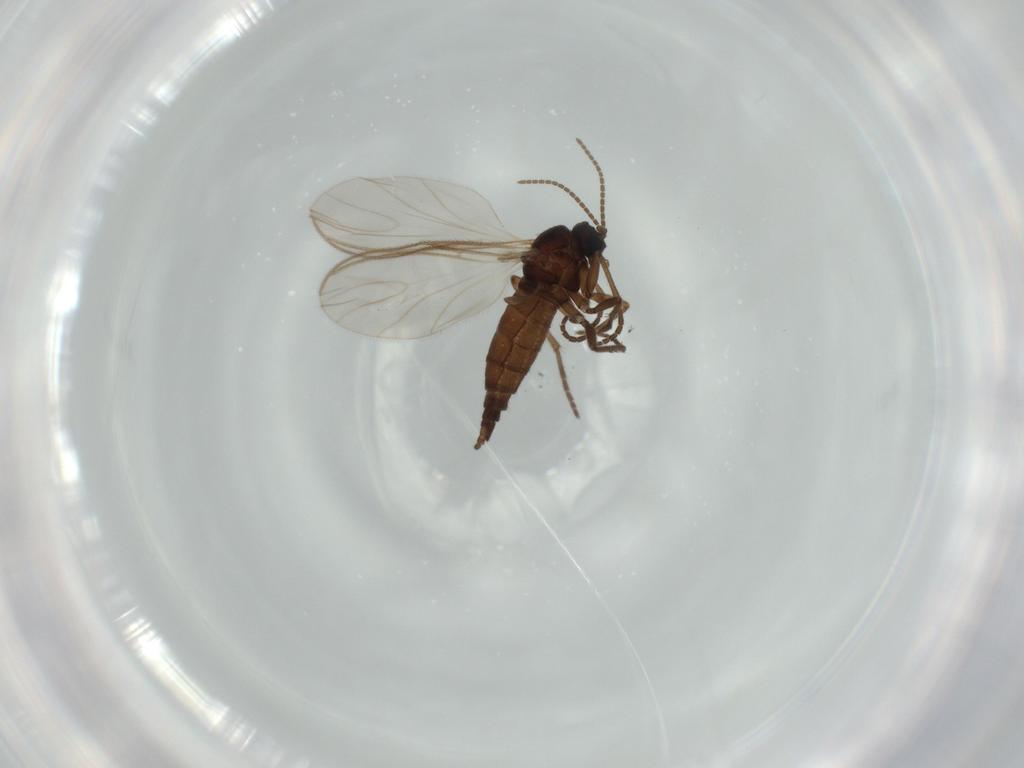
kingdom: Animalia
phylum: Arthropoda
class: Insecta
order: Diptera
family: Sciaridae
